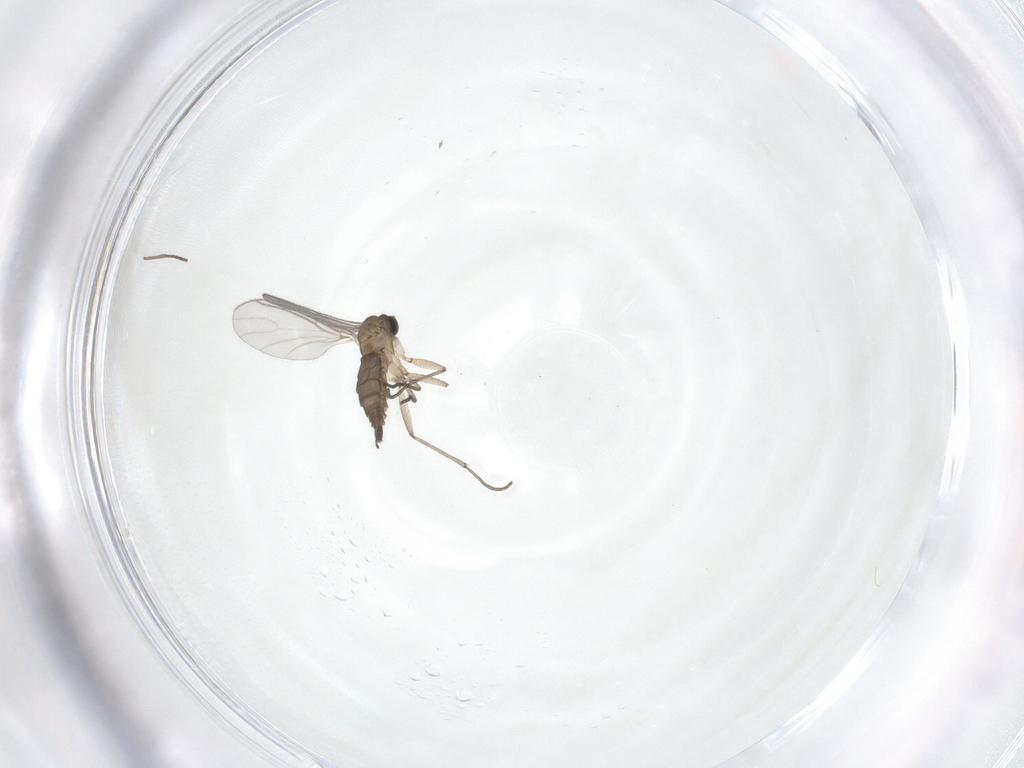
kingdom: Animalia
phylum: Arthropoda
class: Insecta
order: Diptera
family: Sciaridae
